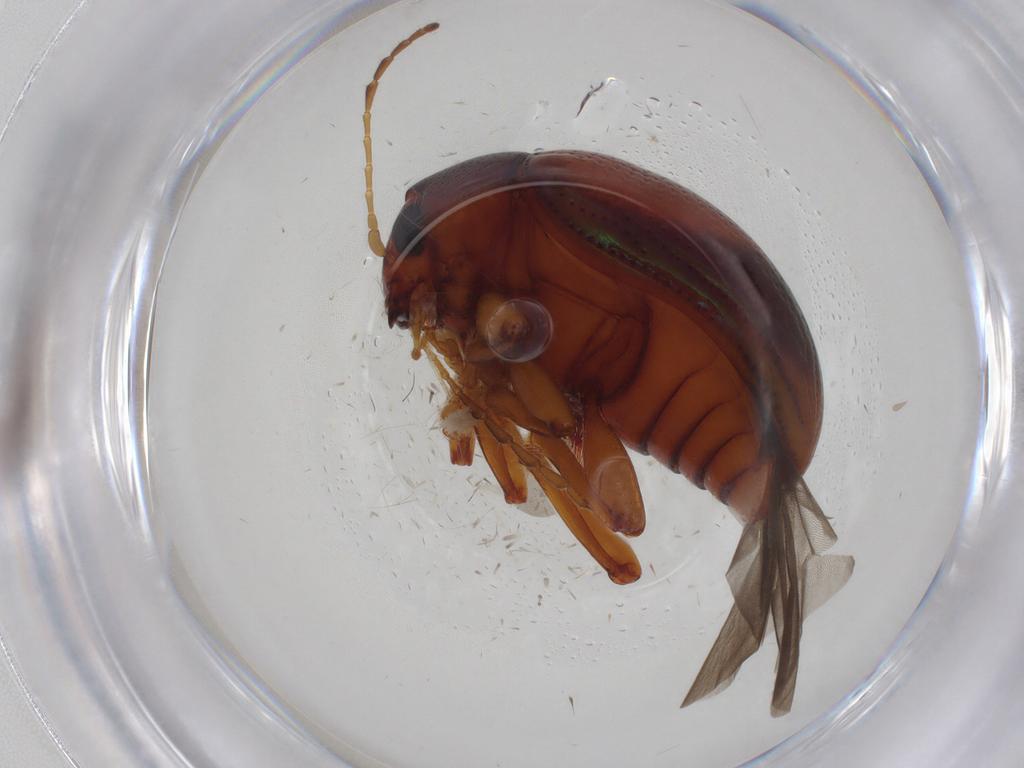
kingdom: Animalia
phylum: Arthropoda
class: Insecta
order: Coleoptera
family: Chrysomelidae
